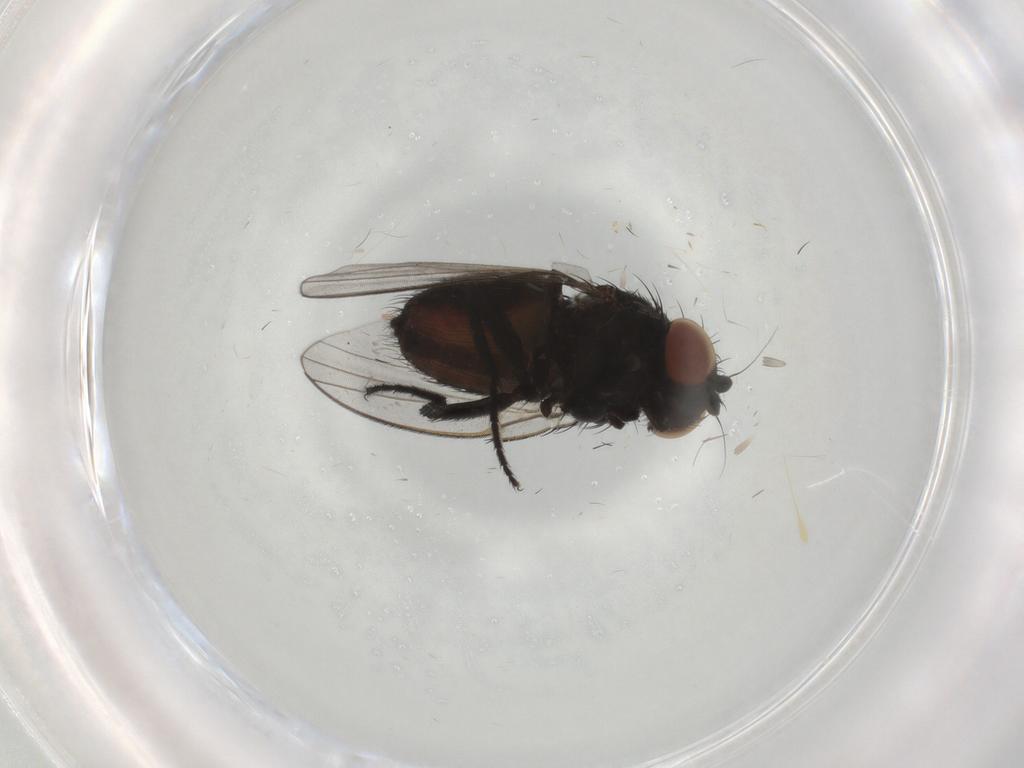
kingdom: Animalia
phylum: Arthropoda
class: Insecta
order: Diptera
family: Milichiidae
